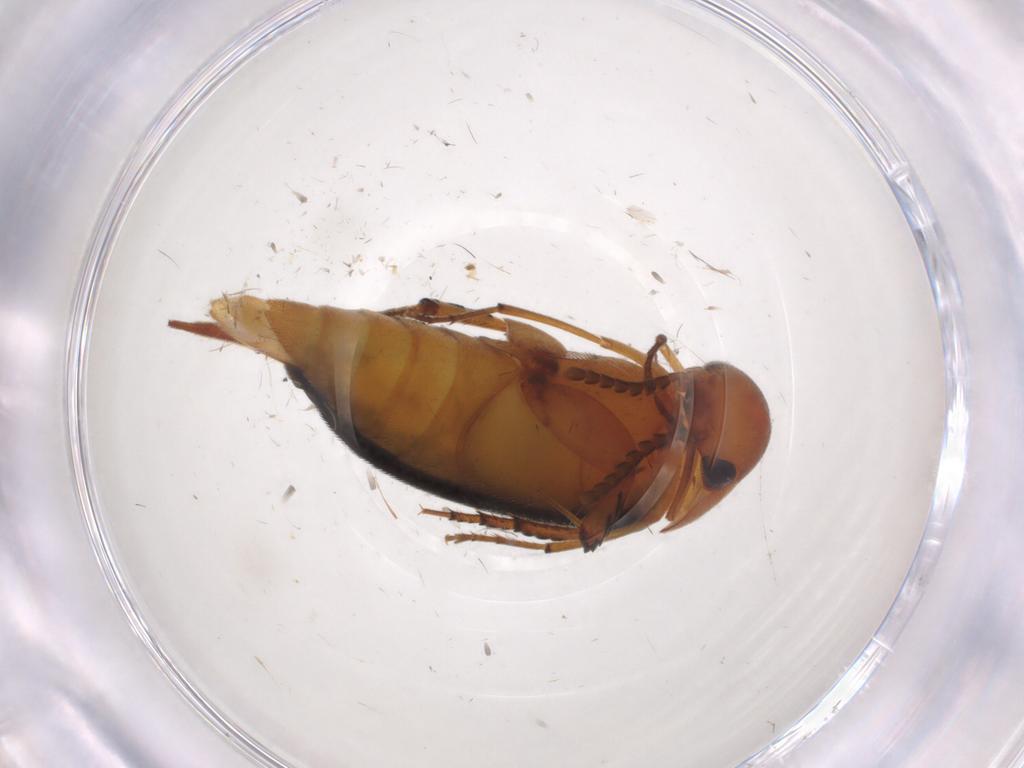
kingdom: Animalia
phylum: Arthropoda
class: Insecta
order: Coleoptera
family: Mordellidae
